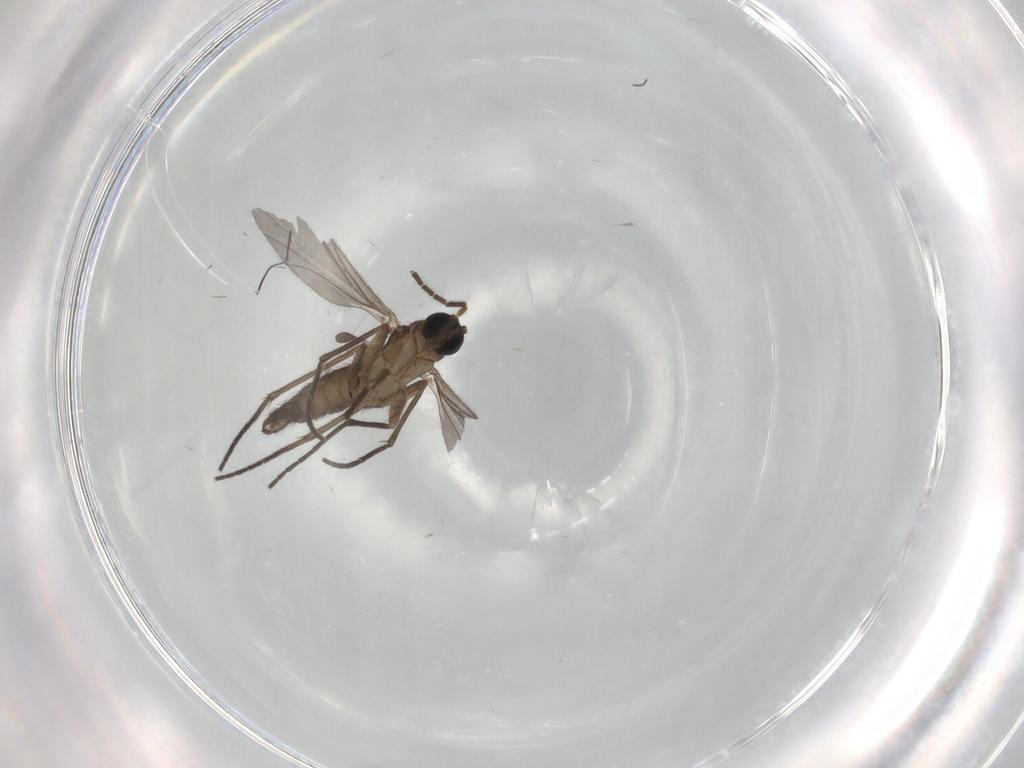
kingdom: Animalia
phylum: Arthropoda
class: Insecta
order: Diptera
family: Sciaridae
